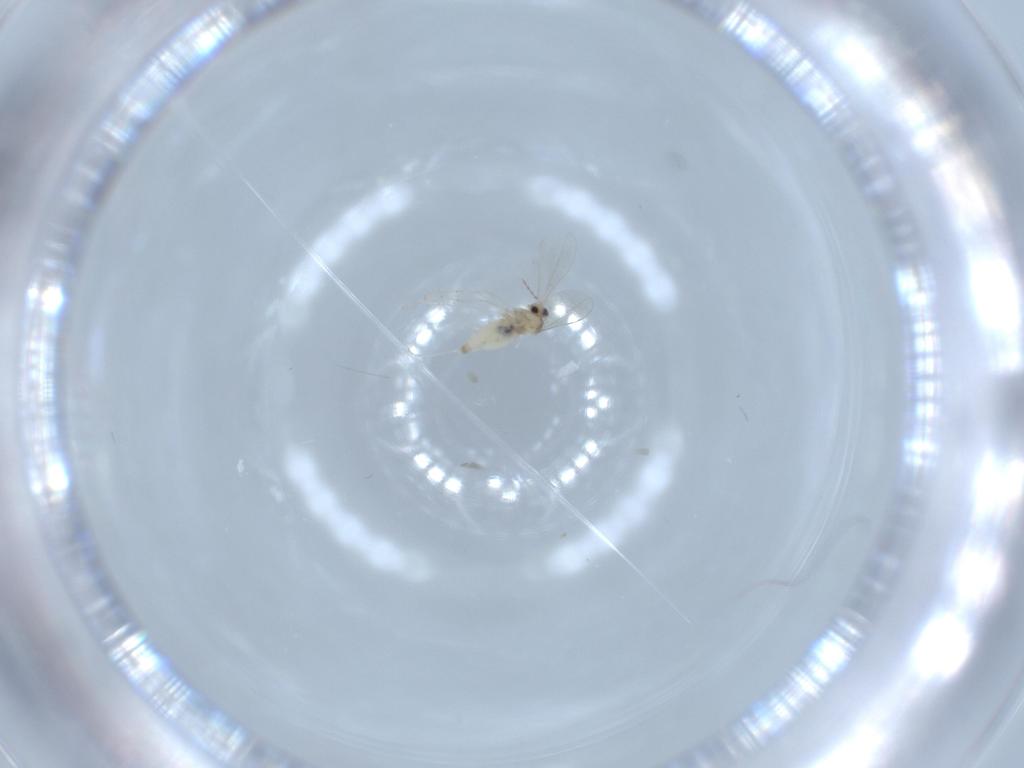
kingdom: Animalia
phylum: Arthropoda
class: Insecta
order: Diptera
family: Cecidomyiidae
